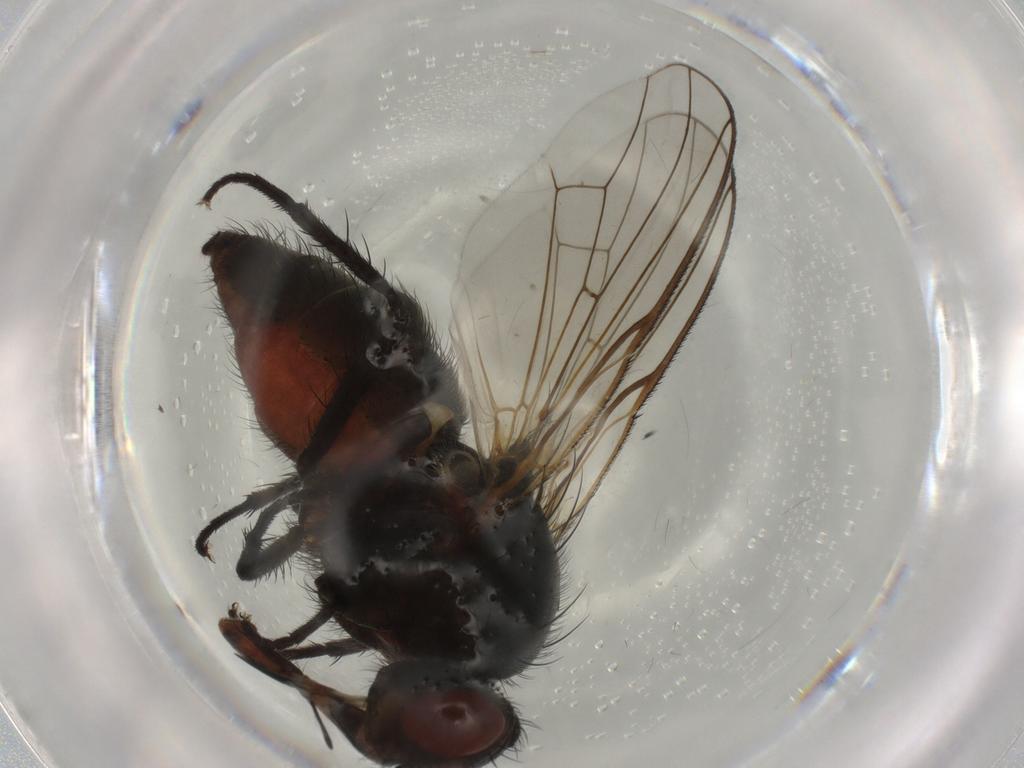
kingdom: Animalia
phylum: Arthropoda
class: Insecta
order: Diptera
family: Anthomyiidae
